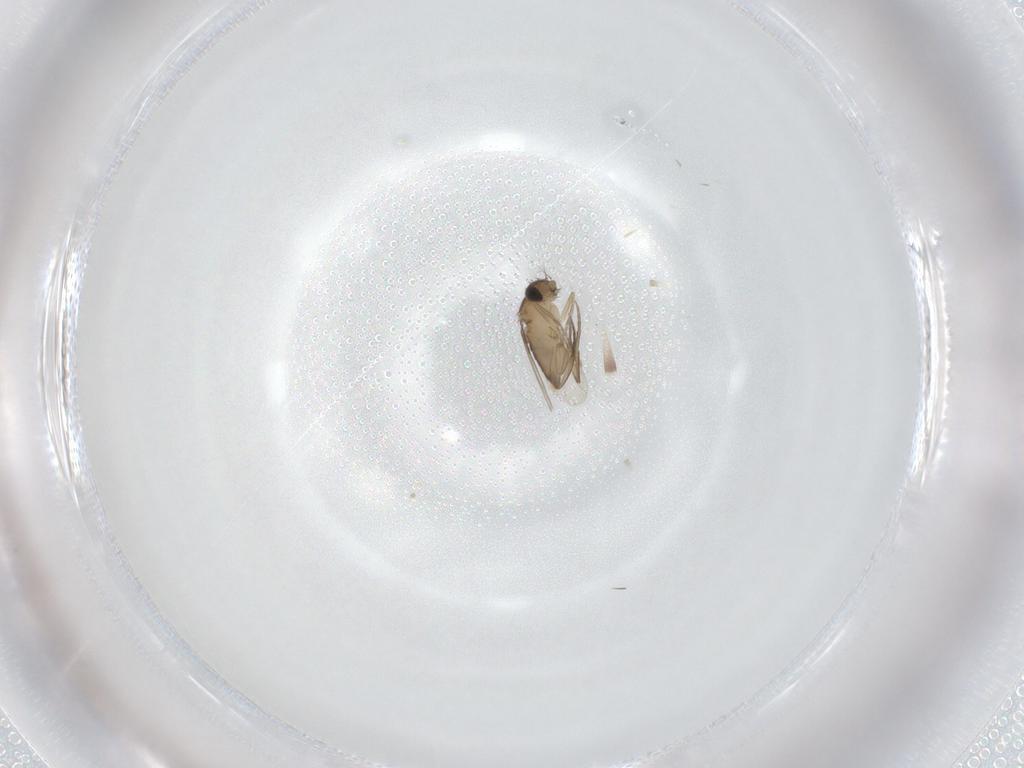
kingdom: Animalia
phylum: Arthropoda
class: Insecta
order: Diptera
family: Phoridae
